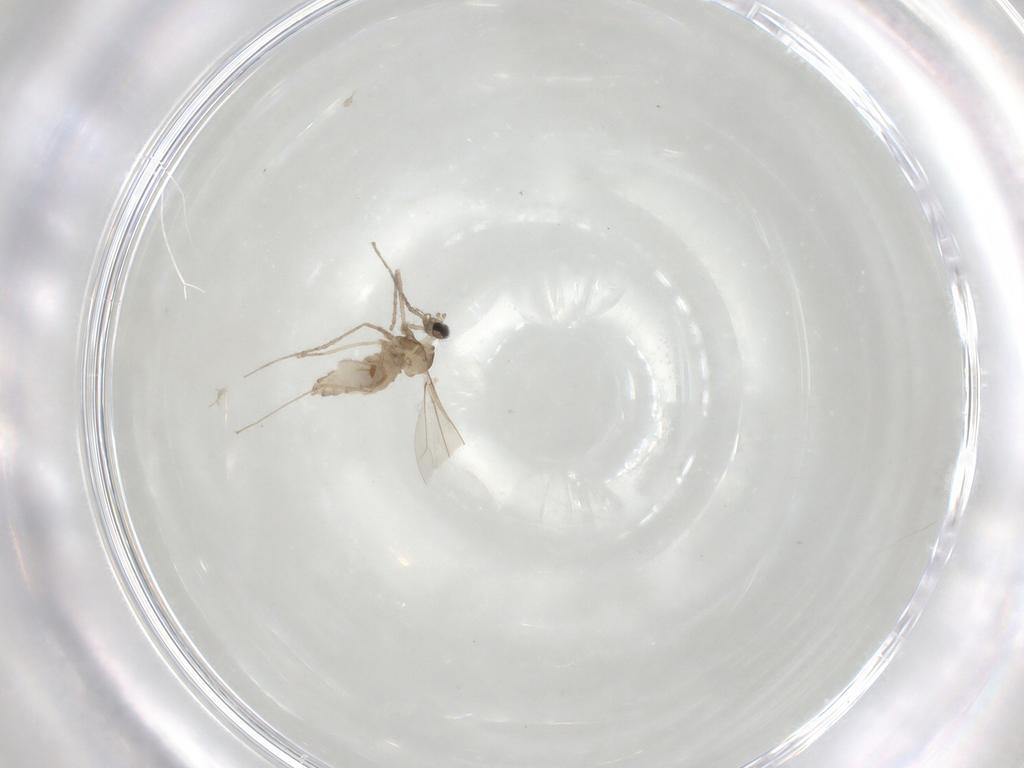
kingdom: Animalia
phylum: Arthropoda
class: Insecta
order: Diptera
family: Cecidomyiidae
